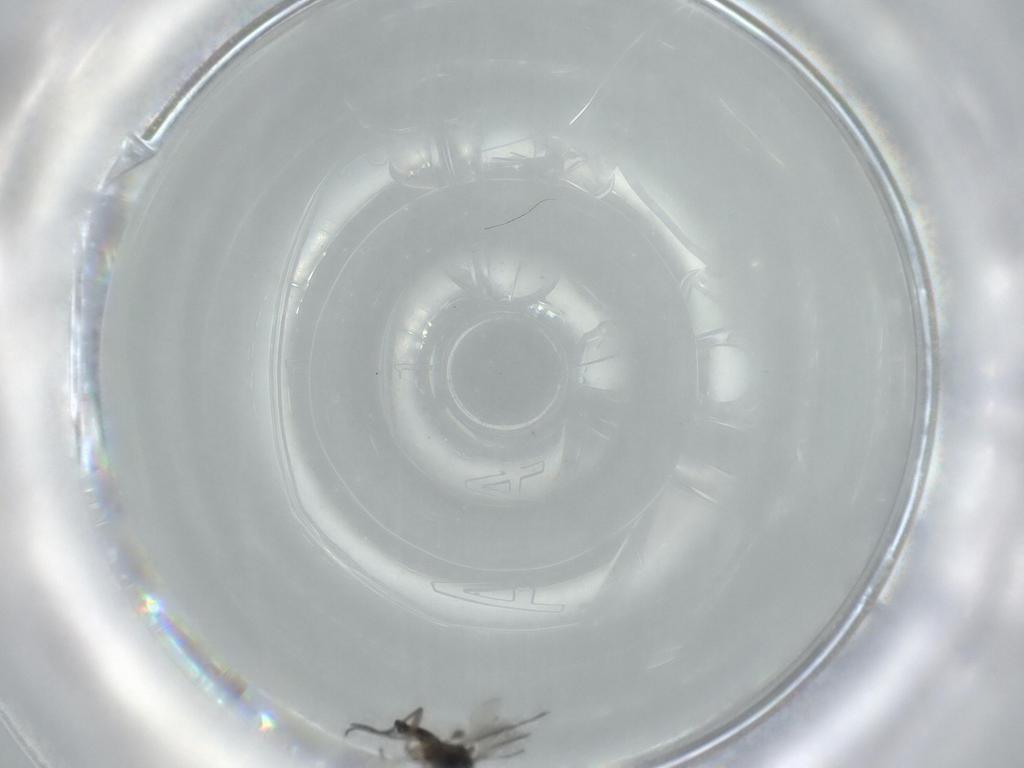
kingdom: Animalia
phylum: Arthropoda
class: Insecta
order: Diptera
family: Sciaridae
